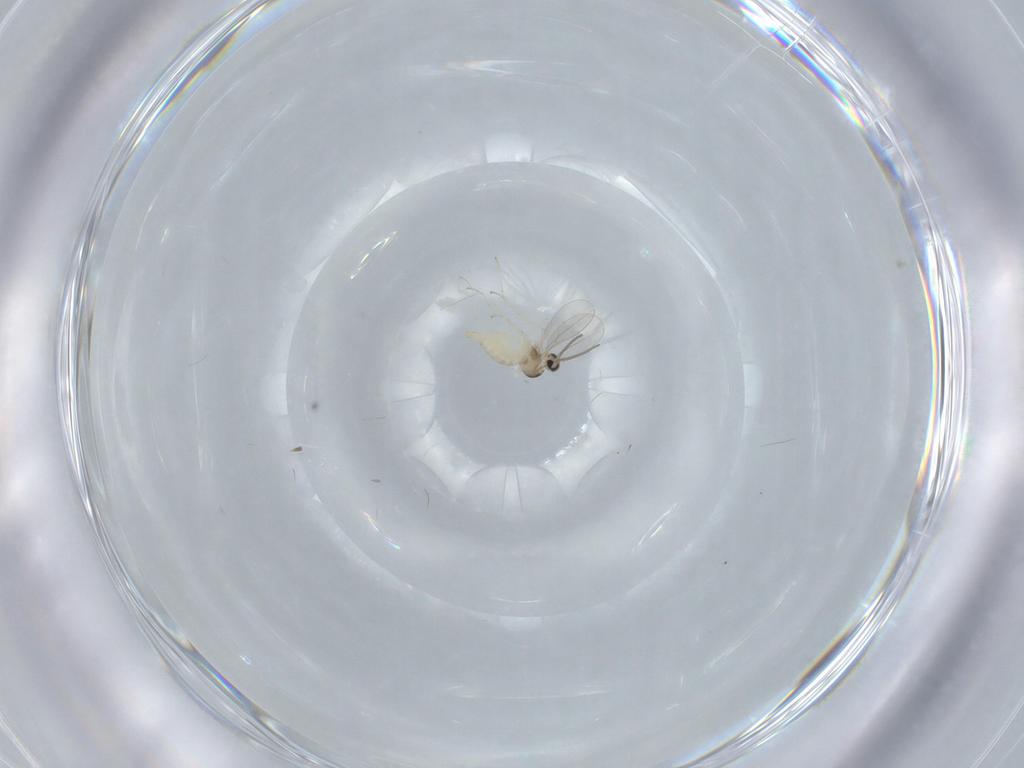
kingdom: Animalia
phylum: Arthropoda
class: Insecta
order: Diptera
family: Cecidomyiidae
